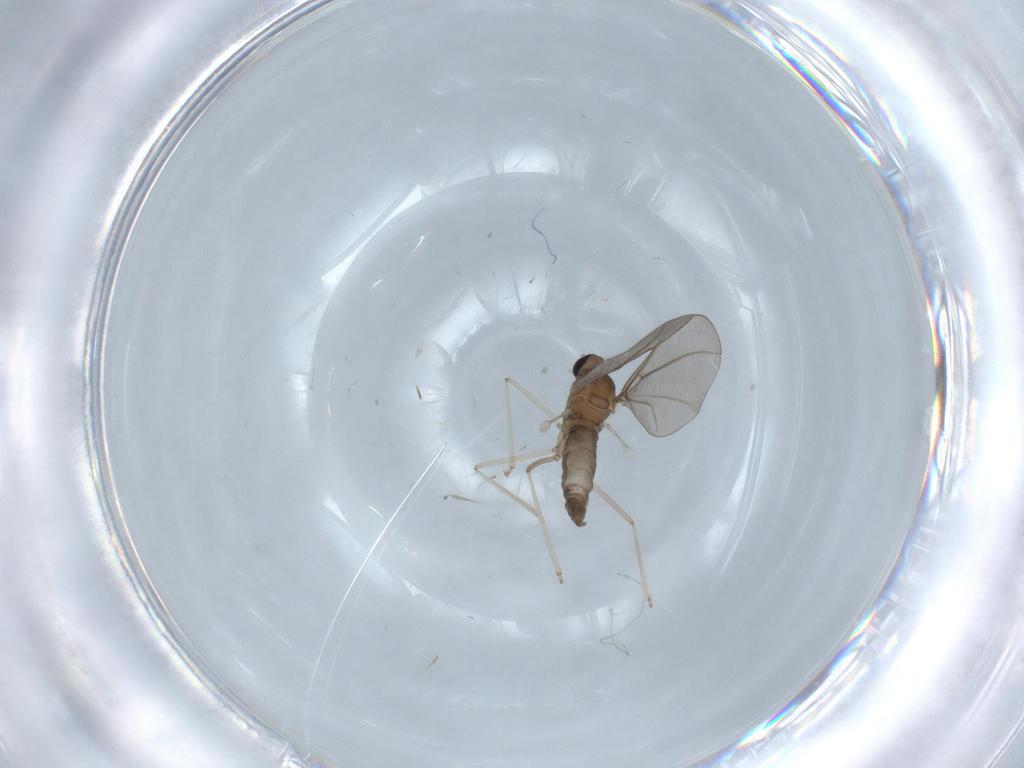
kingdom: Animalia
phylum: Arthropoda
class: Insecta
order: Diptera
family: Cecidomyiidae
